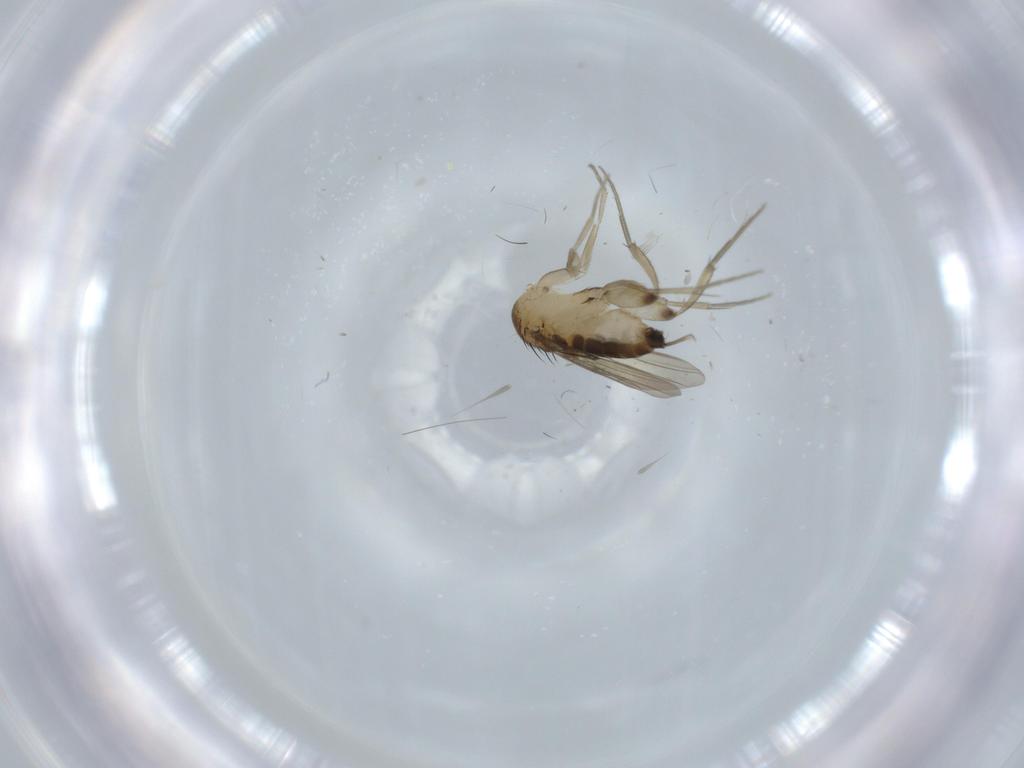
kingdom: Animalia
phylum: Arthropoda
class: Insecta
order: Diptera
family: Phoridae
